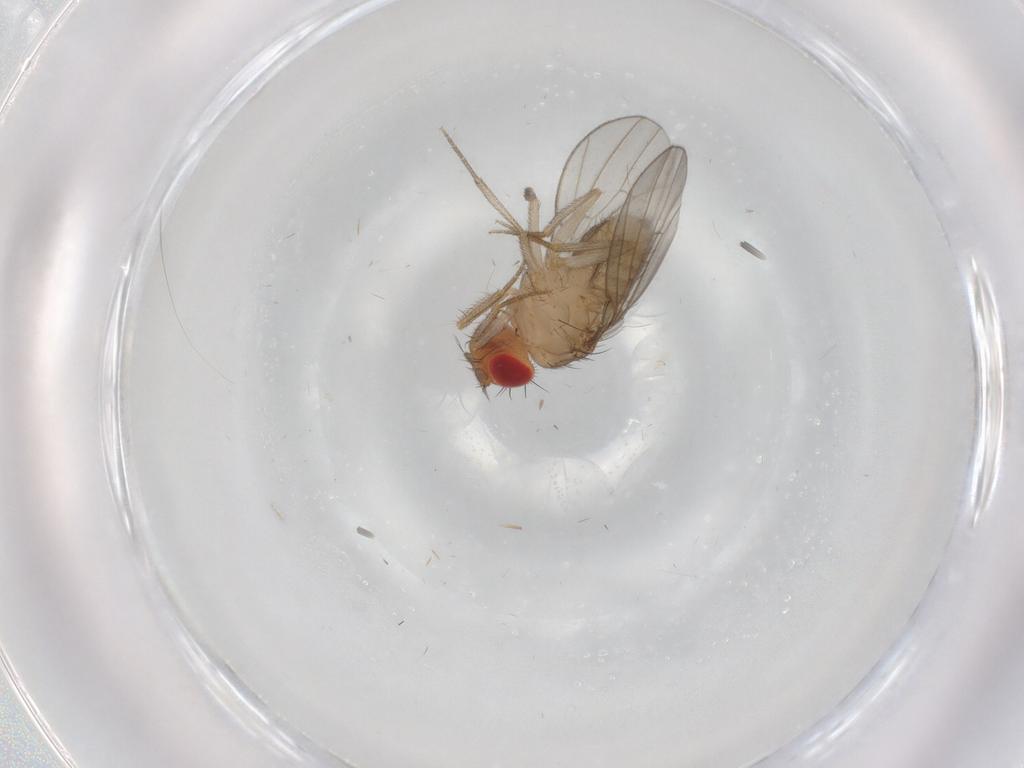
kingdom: Animalia
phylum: Arthropoda
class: Insecta
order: Diptera
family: Drosophilidae
